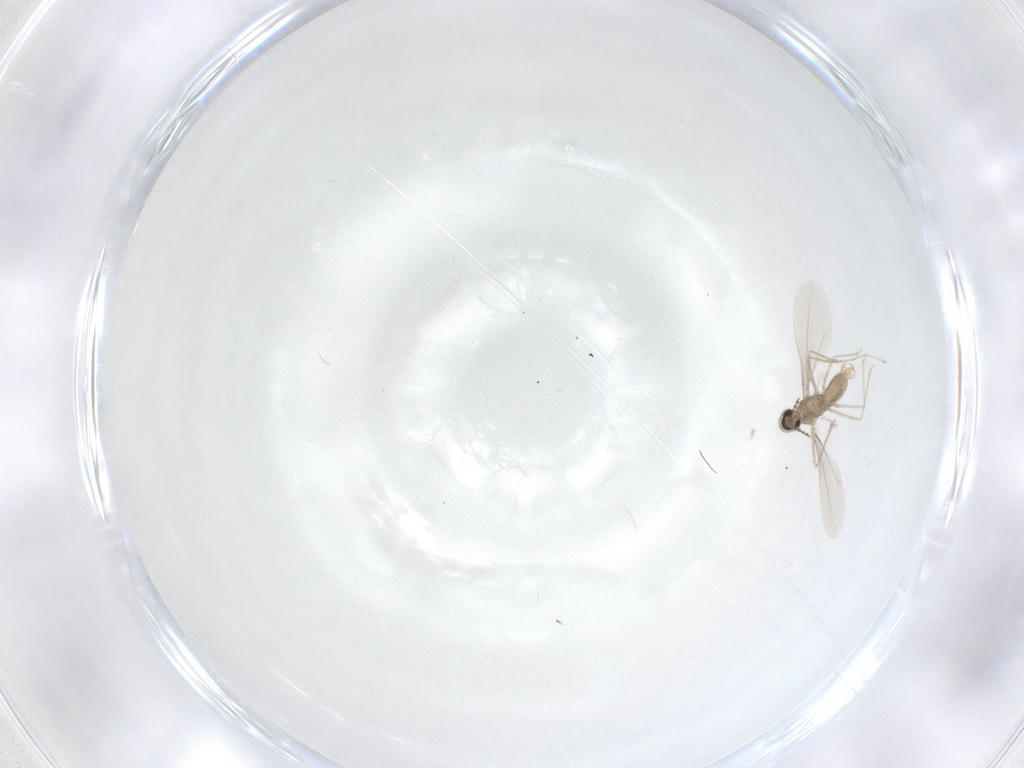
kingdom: Animalia
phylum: Arthropoda
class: Insecta
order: Diptera
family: Cecidomyiidae
